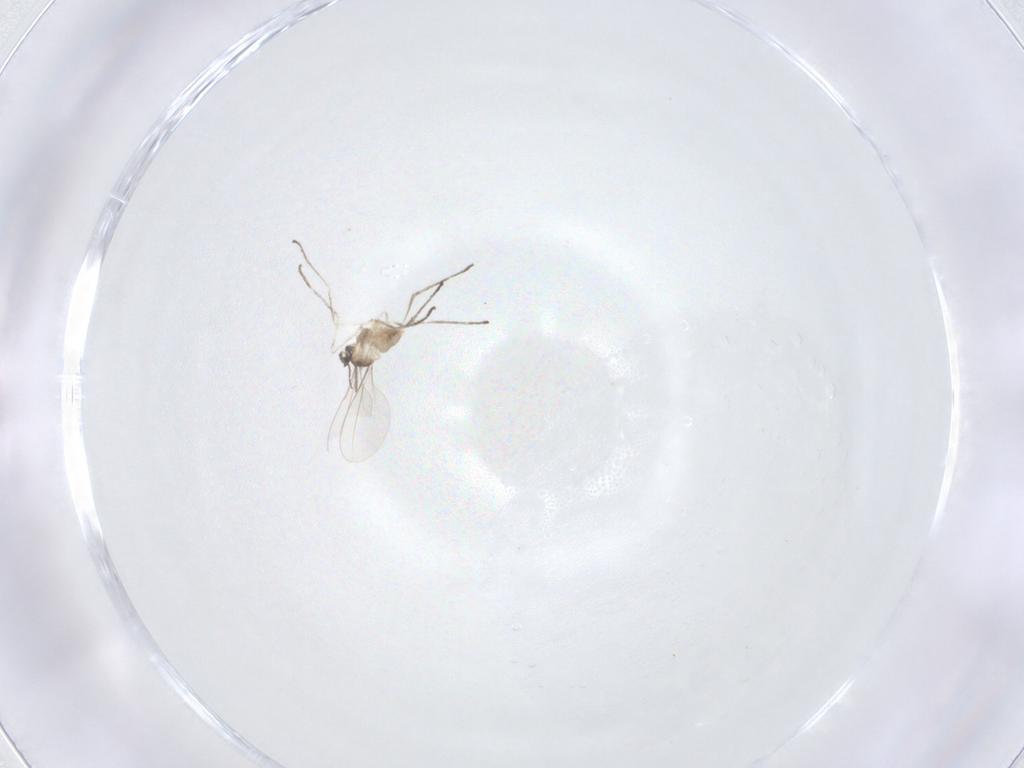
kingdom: Animalia
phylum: Arthropoda
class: Insecta
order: Diptera
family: Cecidomyiidae
